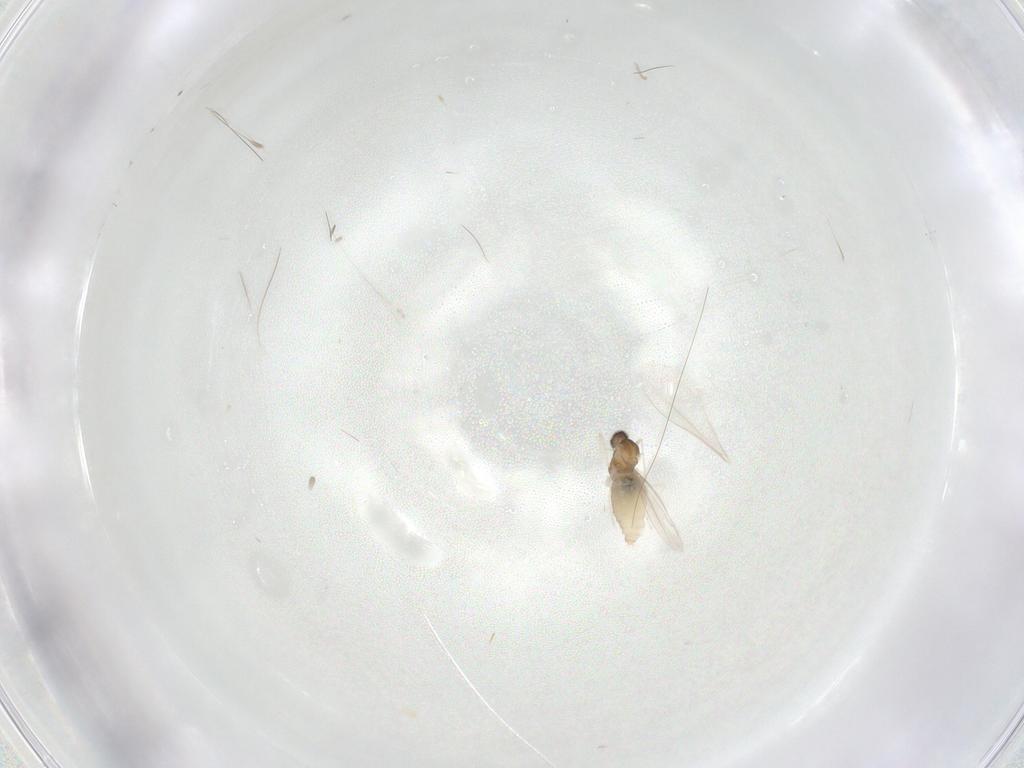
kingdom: Animalia
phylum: Arthropoda
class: Insecta
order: Diptera
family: Cecidomyiidae
